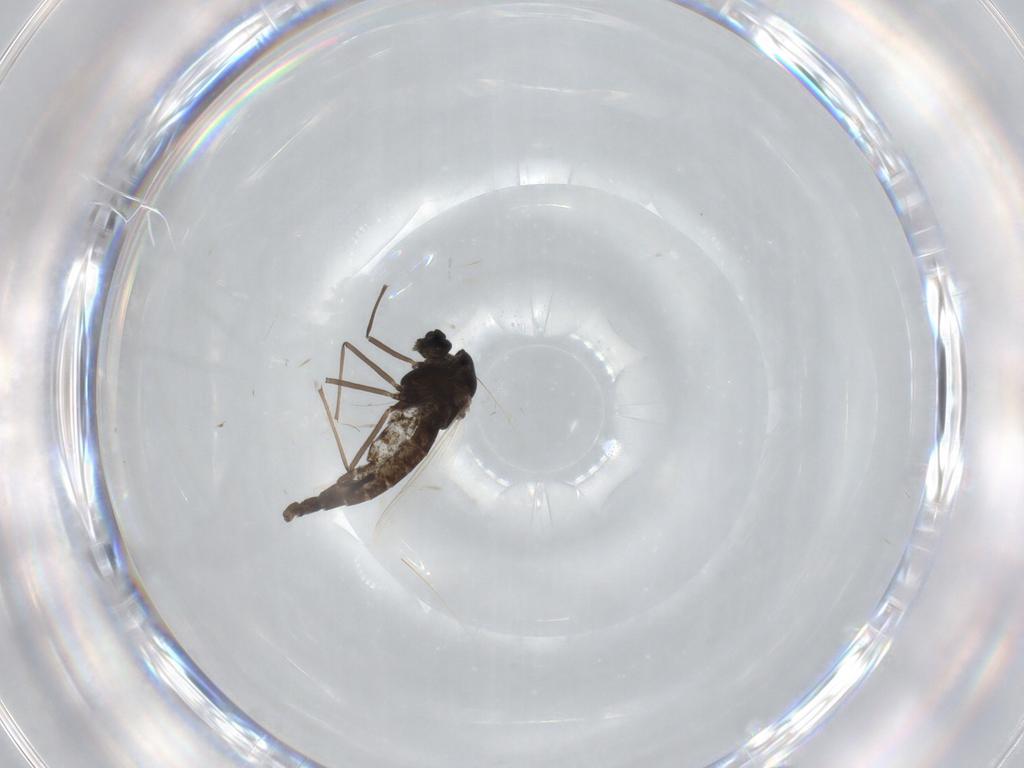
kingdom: Animalia
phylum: Arthropoda
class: Insecta
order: Diptera
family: Chironomidae
